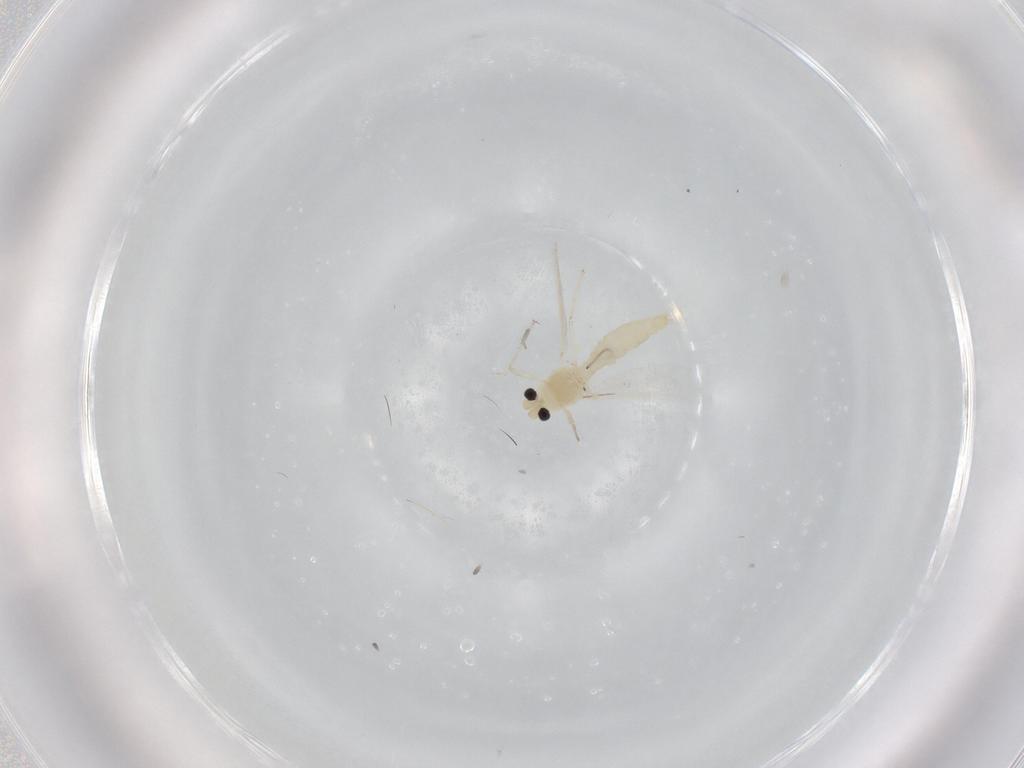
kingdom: Animalia
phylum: Arthropoda
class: Insecta
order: Diptera
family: Chironomidae
